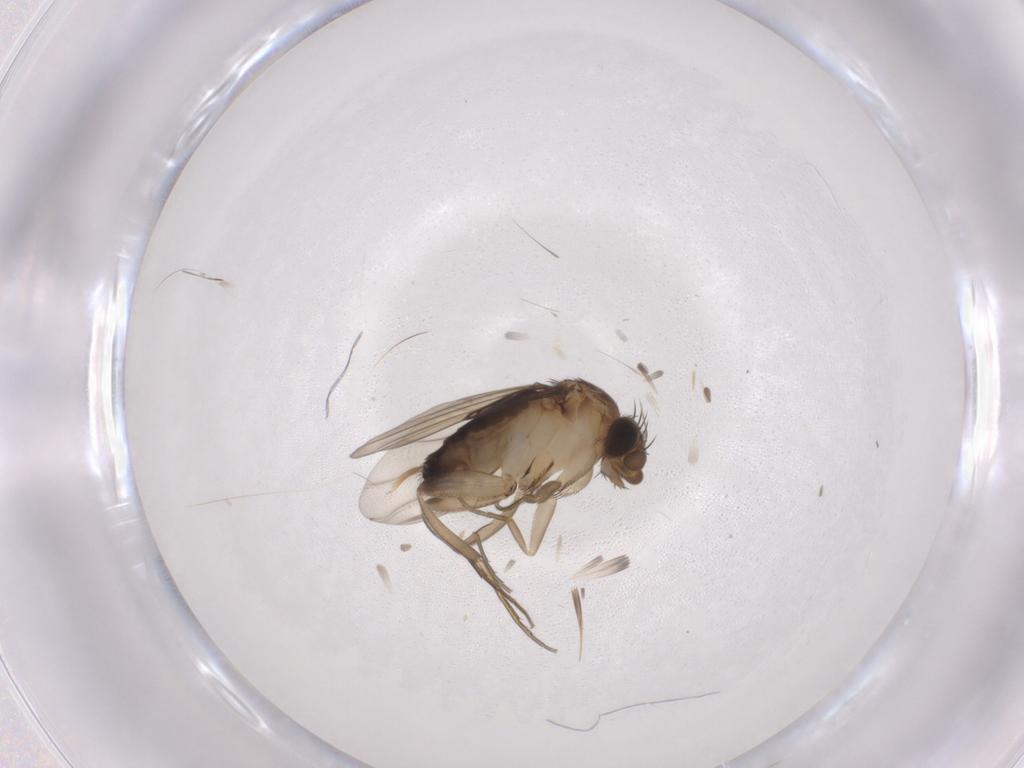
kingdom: Animalia
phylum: Arthropoda
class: Insecta
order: Diptera
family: Phoridae
